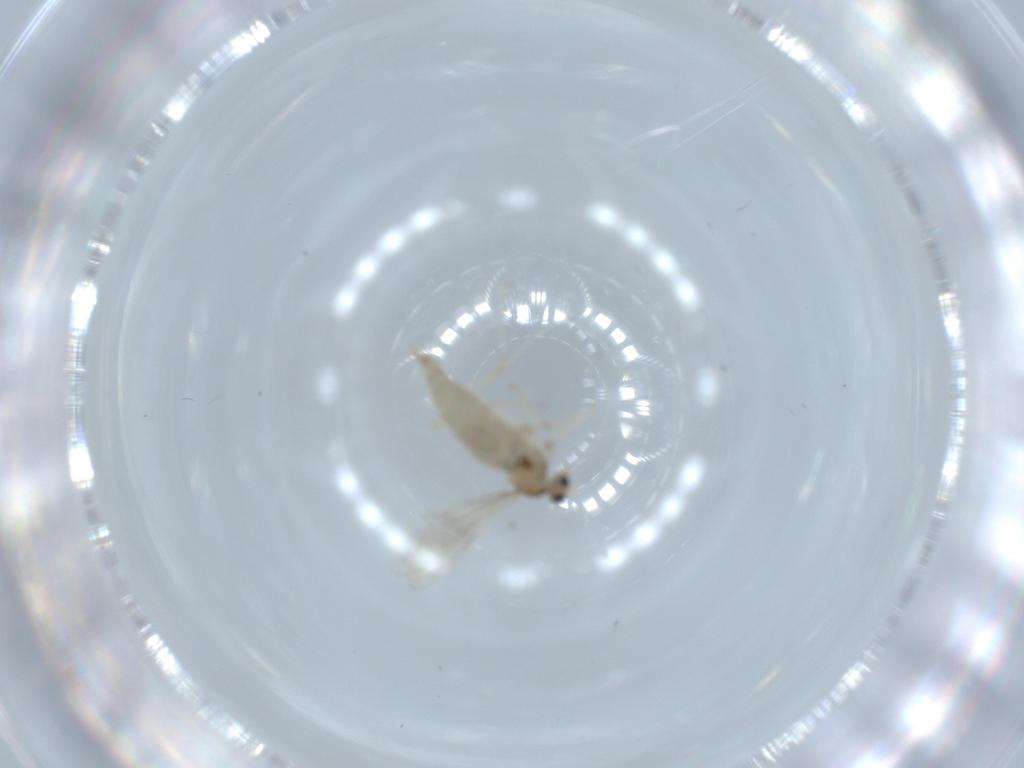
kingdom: Animalia
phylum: Arthropoda
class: Insecta
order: Diptera
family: Cecidomyiidae
